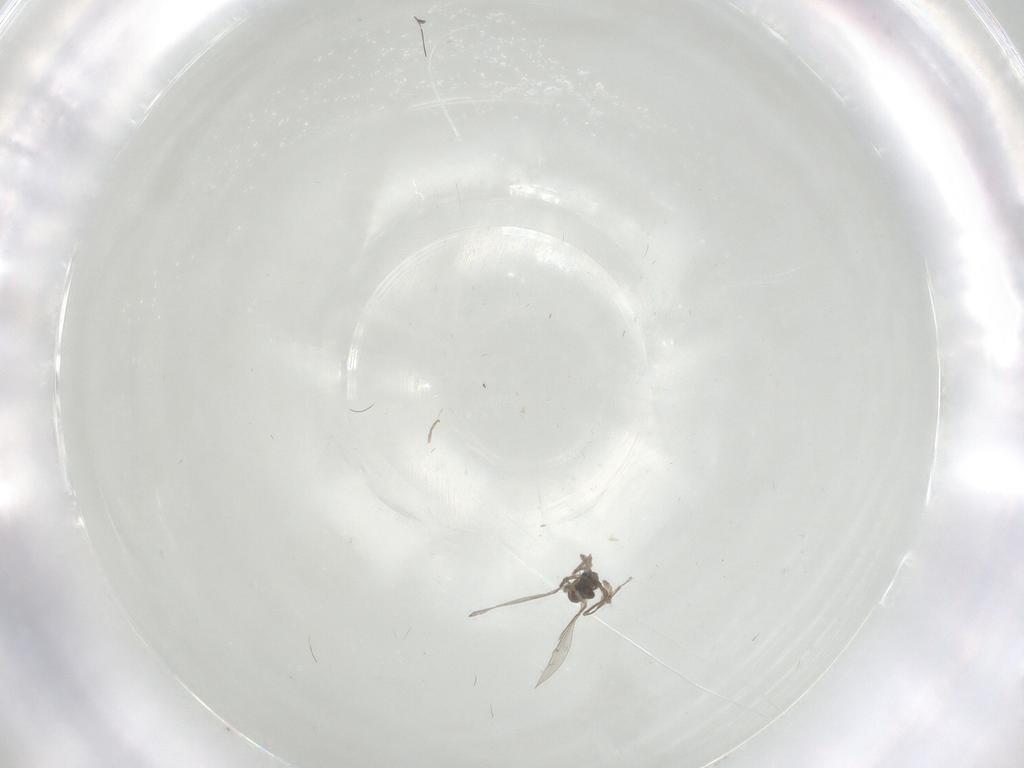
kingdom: Animalia
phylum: Arthropoda
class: Insecta
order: Diptera
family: Cecidomyiidae
